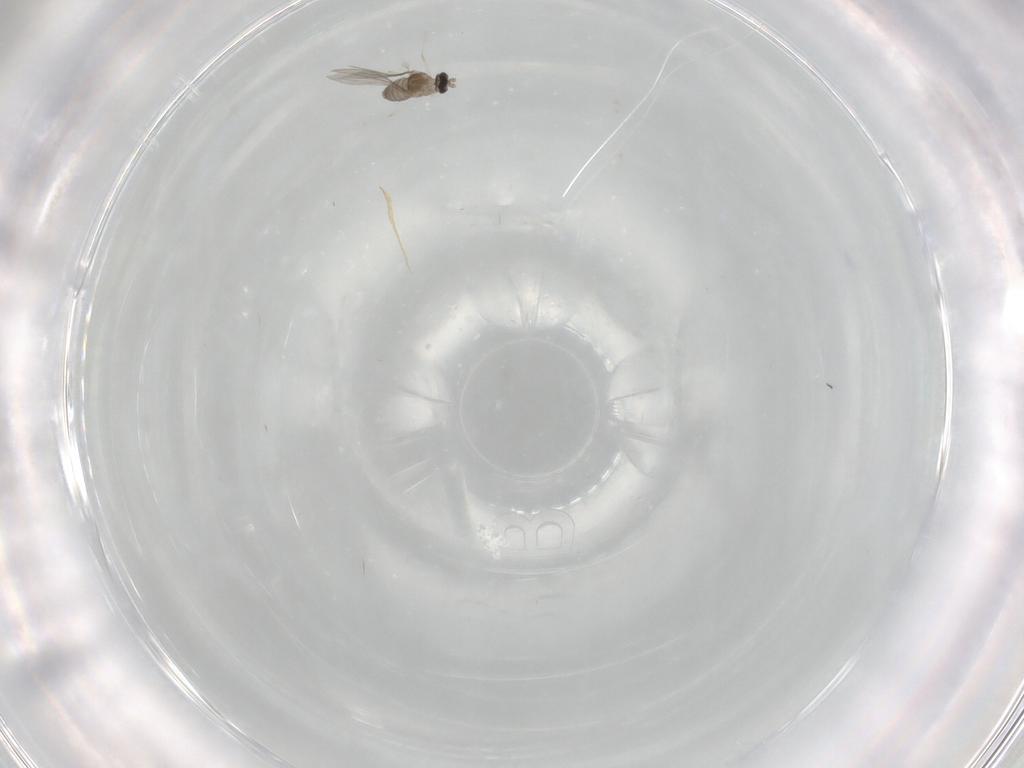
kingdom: Animalia
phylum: Arthropoda
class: Insecta
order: Diptera
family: Cecidomyiidae
